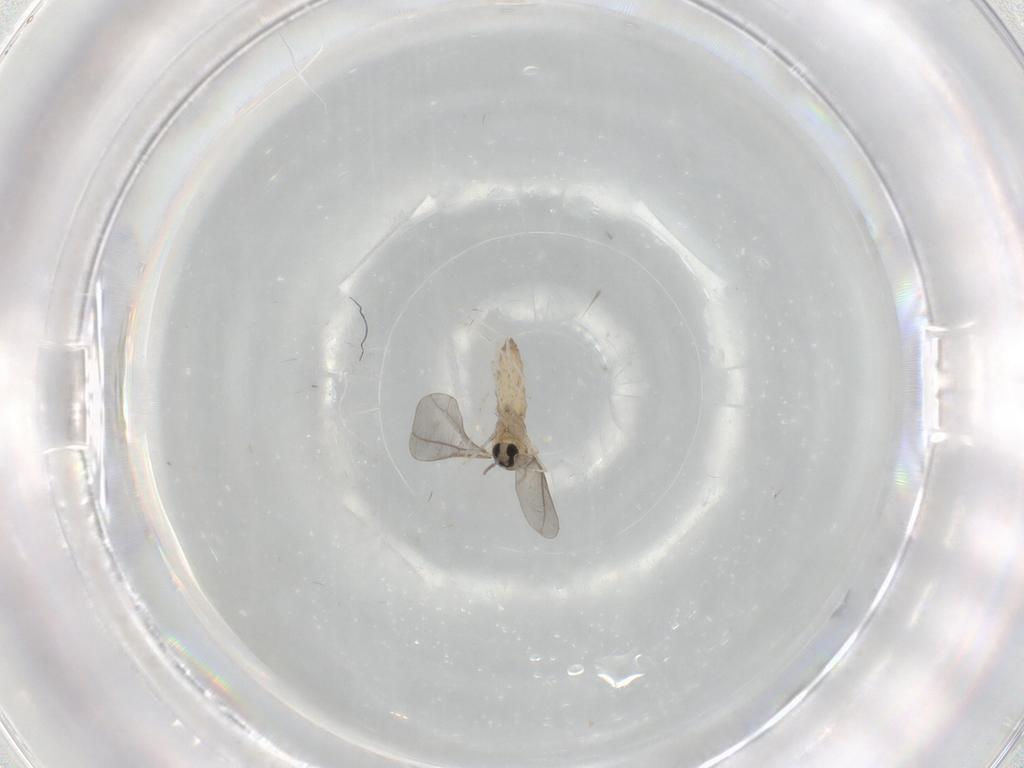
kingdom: Animalia
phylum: Arthropoda
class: Insecta
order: Diptera
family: Cecidomyiidae
